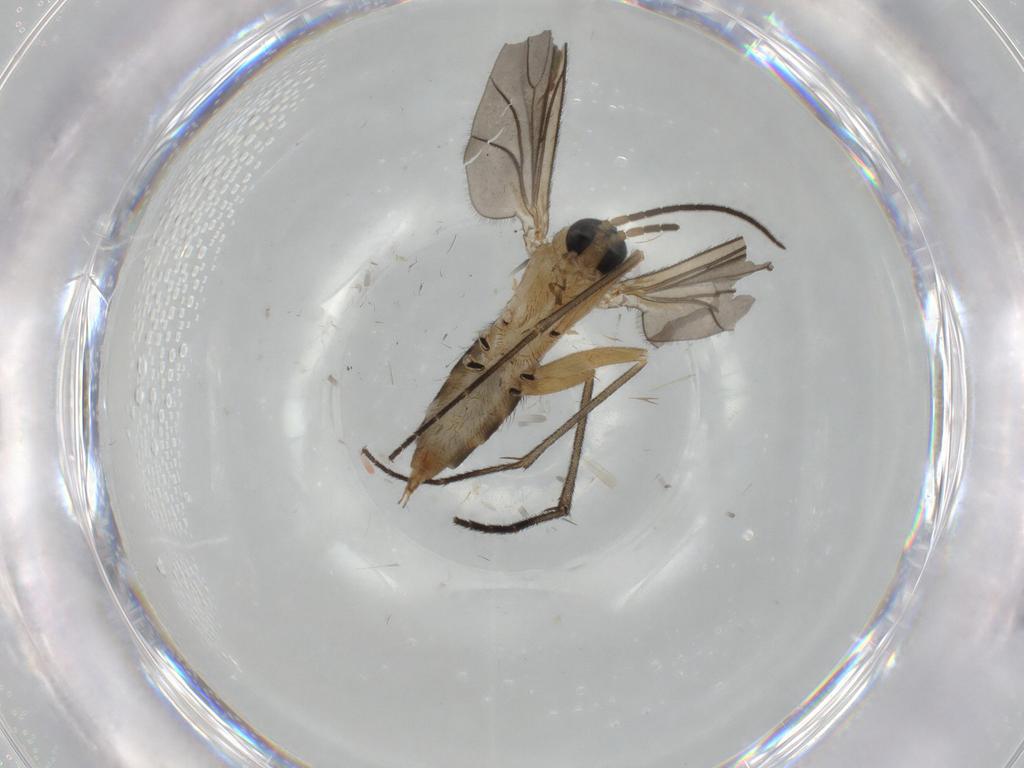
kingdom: Animalia
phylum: Arthropoda
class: Insecta
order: Diptera
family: Sciaridae
